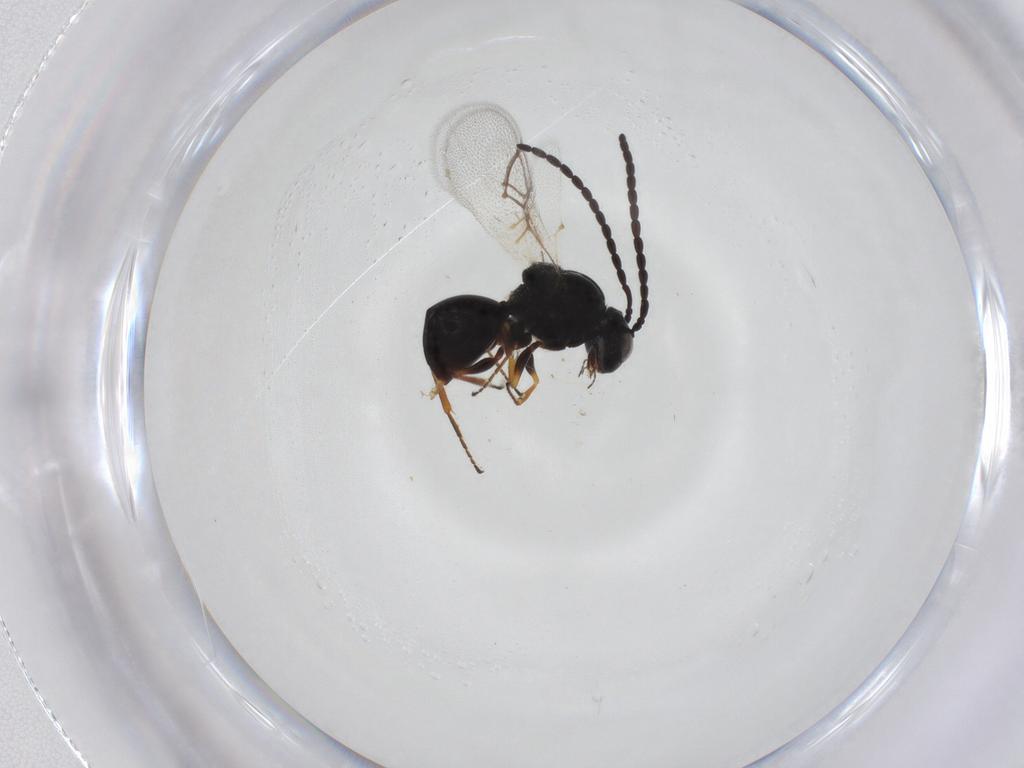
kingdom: Animalia
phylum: Arthropoda
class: Insecta
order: Hymenoptera
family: Figitidae
